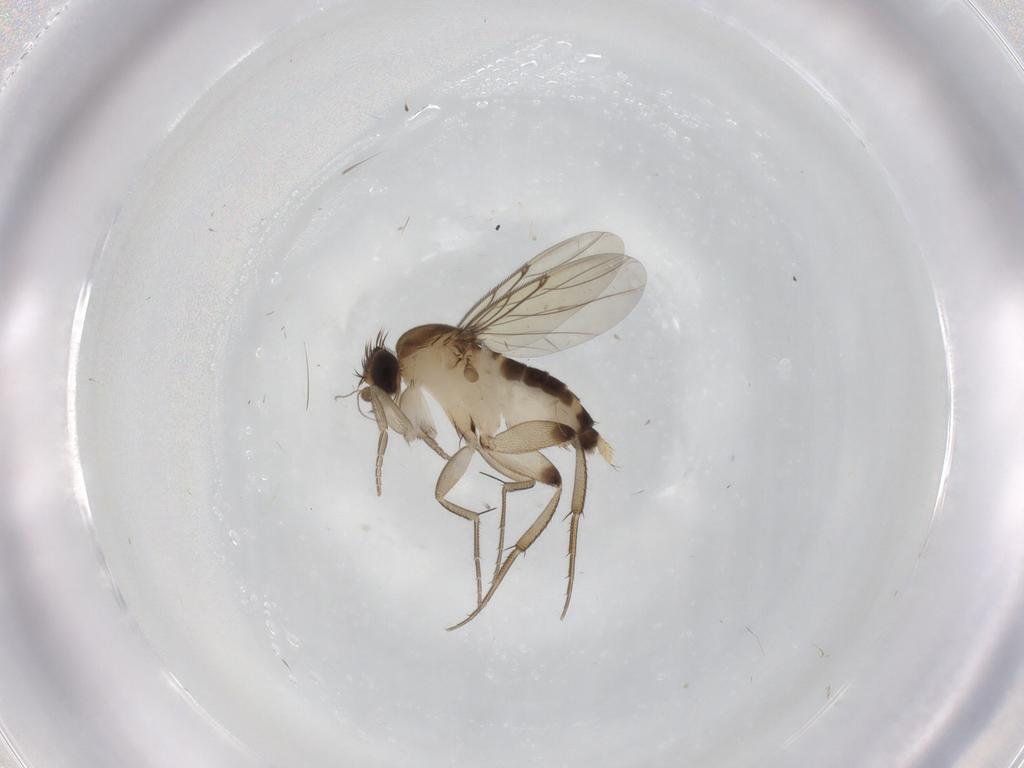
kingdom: Animalia
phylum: Arthropoda
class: Insecta
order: Diptera
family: Phoridae
